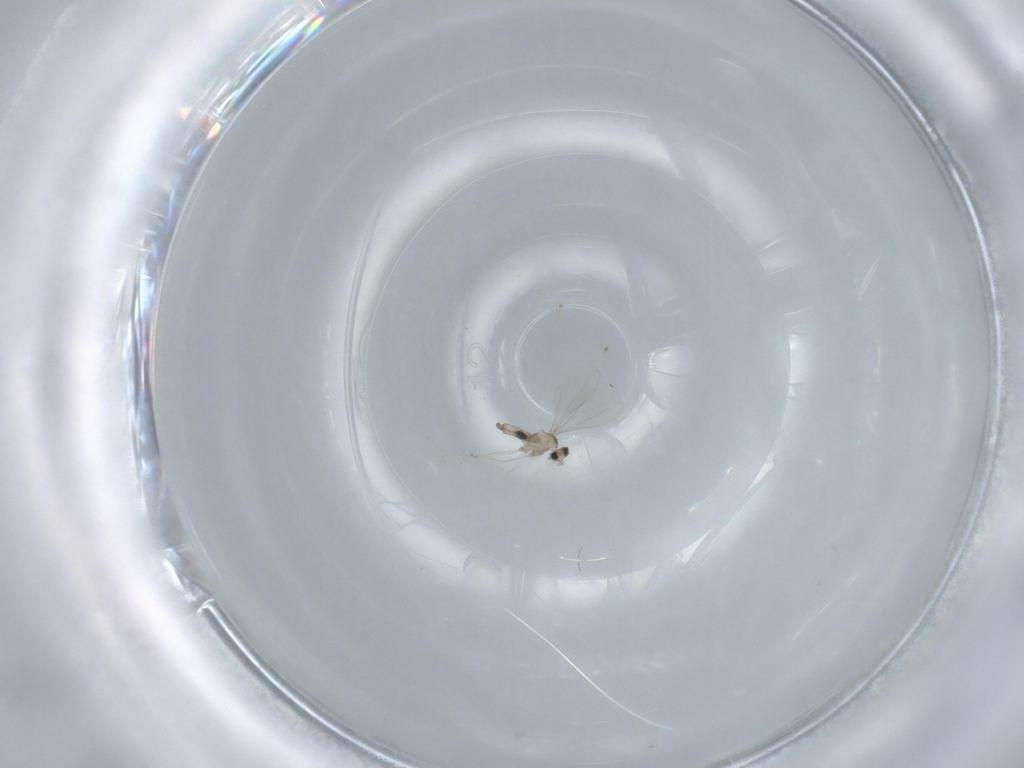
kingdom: Animalia
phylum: Arthropoda
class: Insecta
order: Diptera
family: Cecidomyiidae
